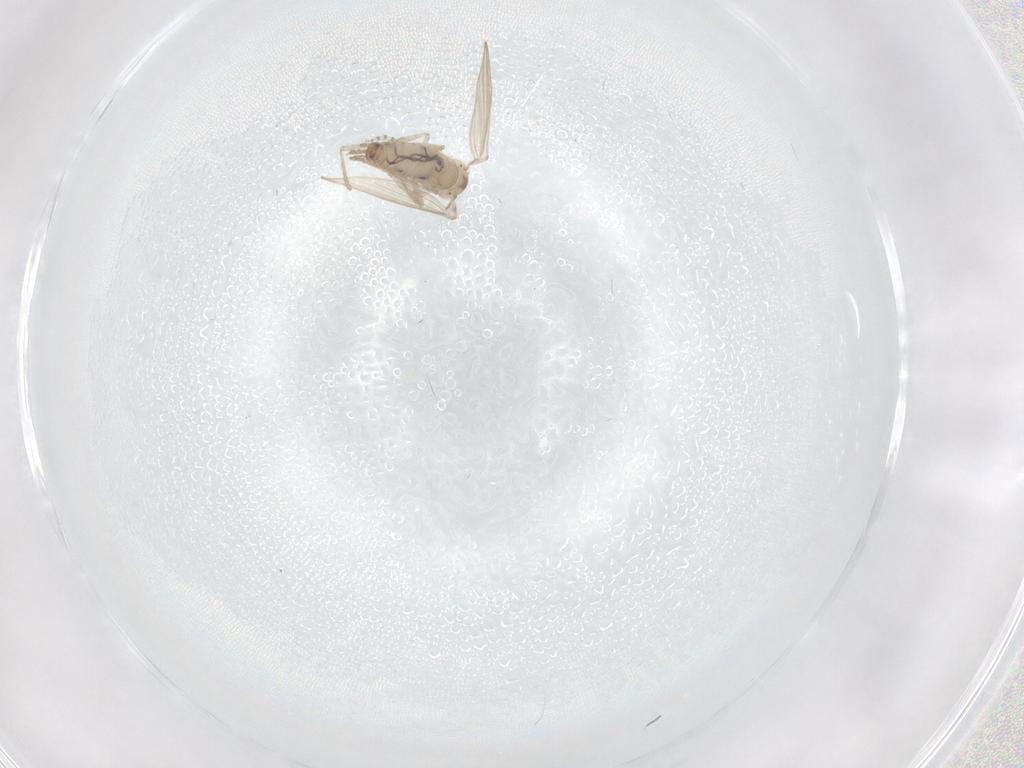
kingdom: Animalia
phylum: Arthropoda
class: Insecta
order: Diptera
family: Psychodidae
